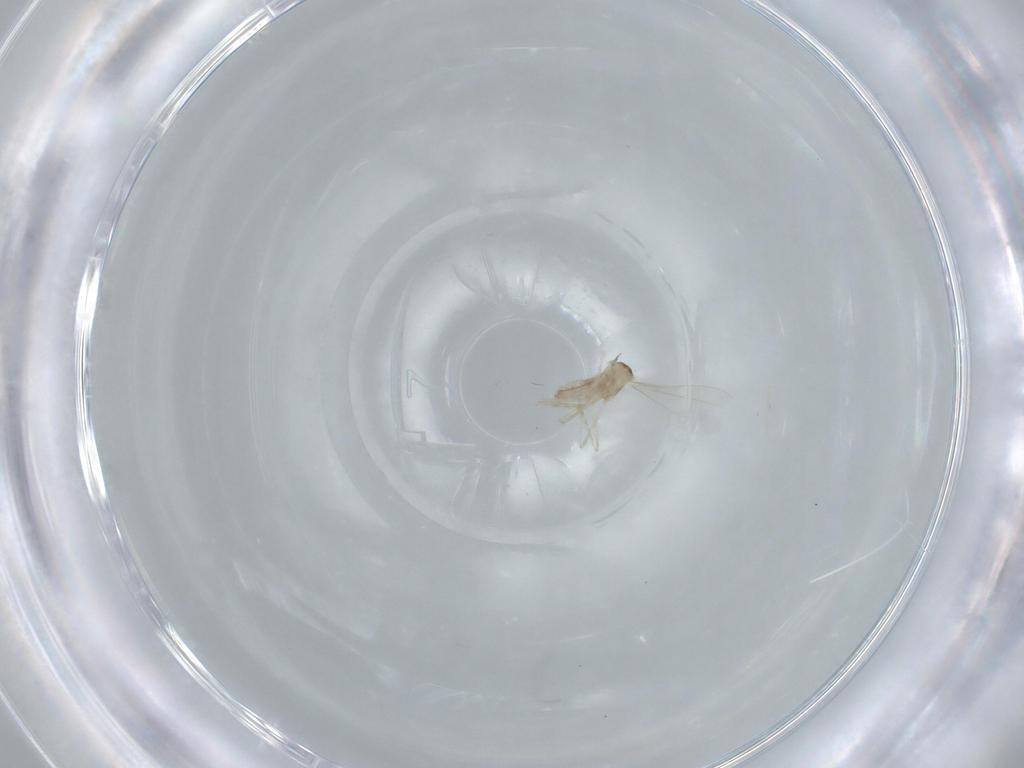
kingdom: Animalia
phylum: Arthropoda
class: Insecta
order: Diptera
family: Cecidomyiidae
